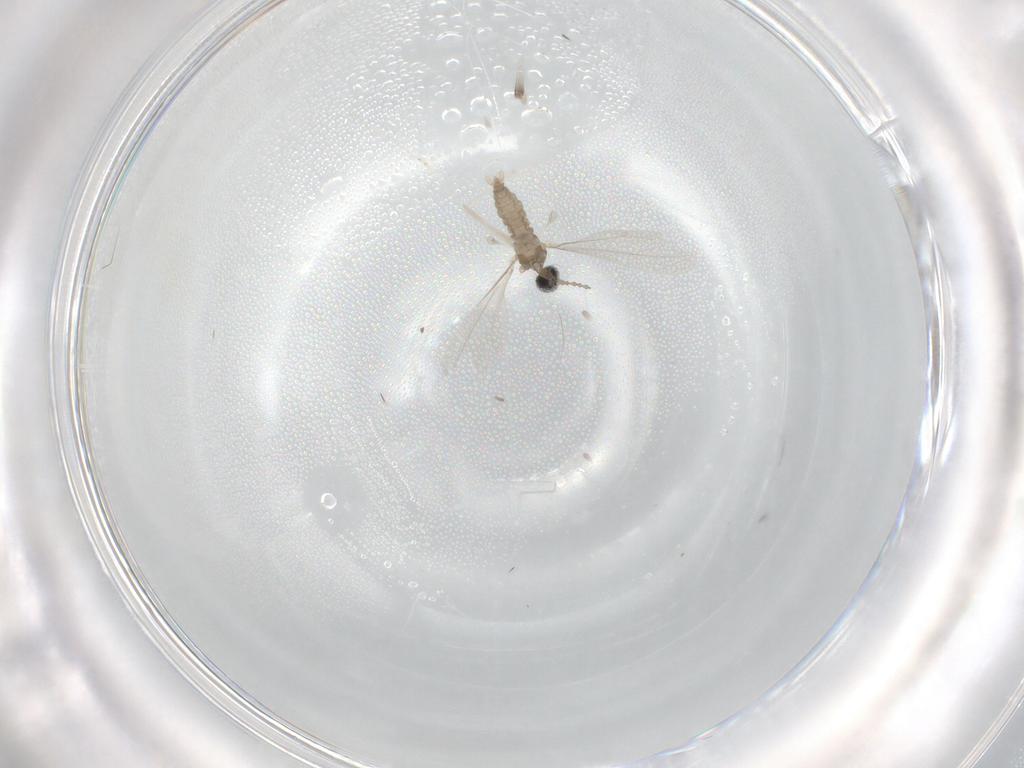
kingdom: Animalia
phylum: Arthropoda
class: Insecta
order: Diptera
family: Cecidomyiidae
